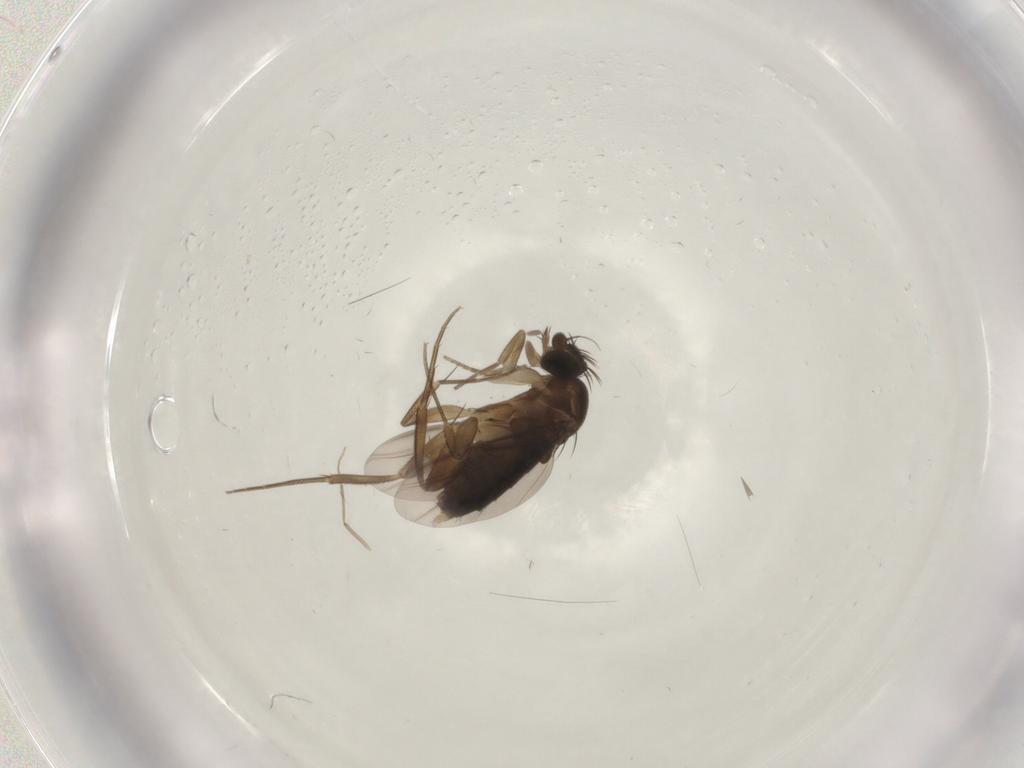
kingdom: Animalia
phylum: Arthropoda
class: Insecta
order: Diptera
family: Phoridae
